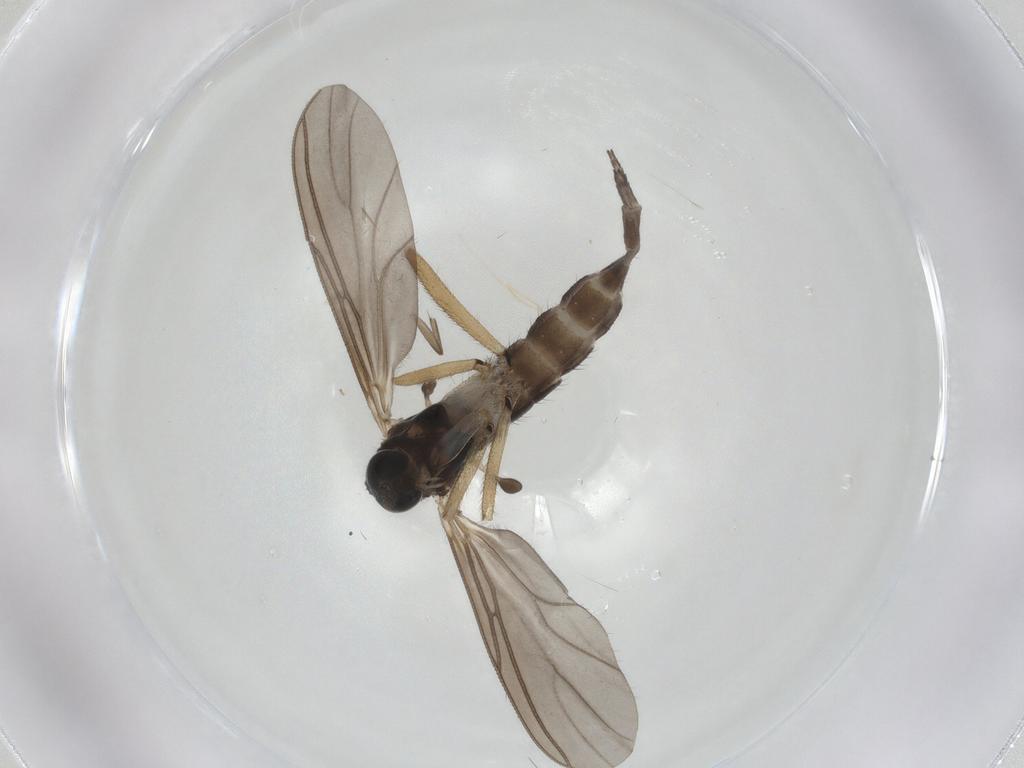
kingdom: Animalia
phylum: Arthropoda
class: Insecta
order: Diptera
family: Sciaridae
